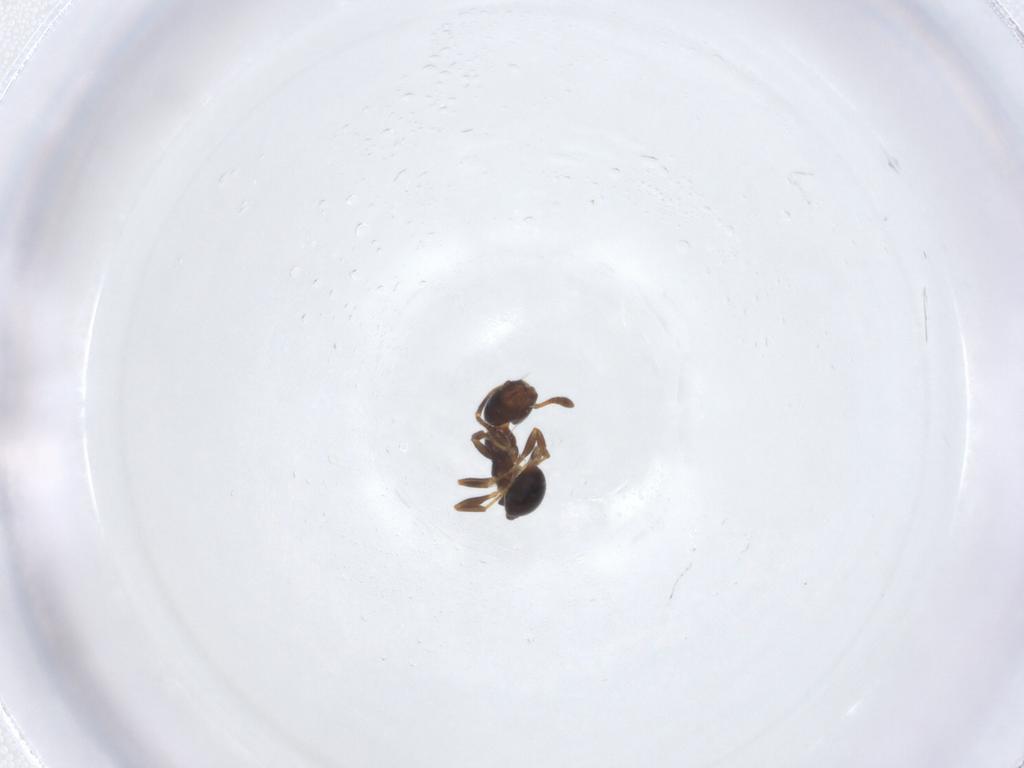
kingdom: Animalia
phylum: Arthropoda
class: Insecta
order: Hymenoptera
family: Formicidae
